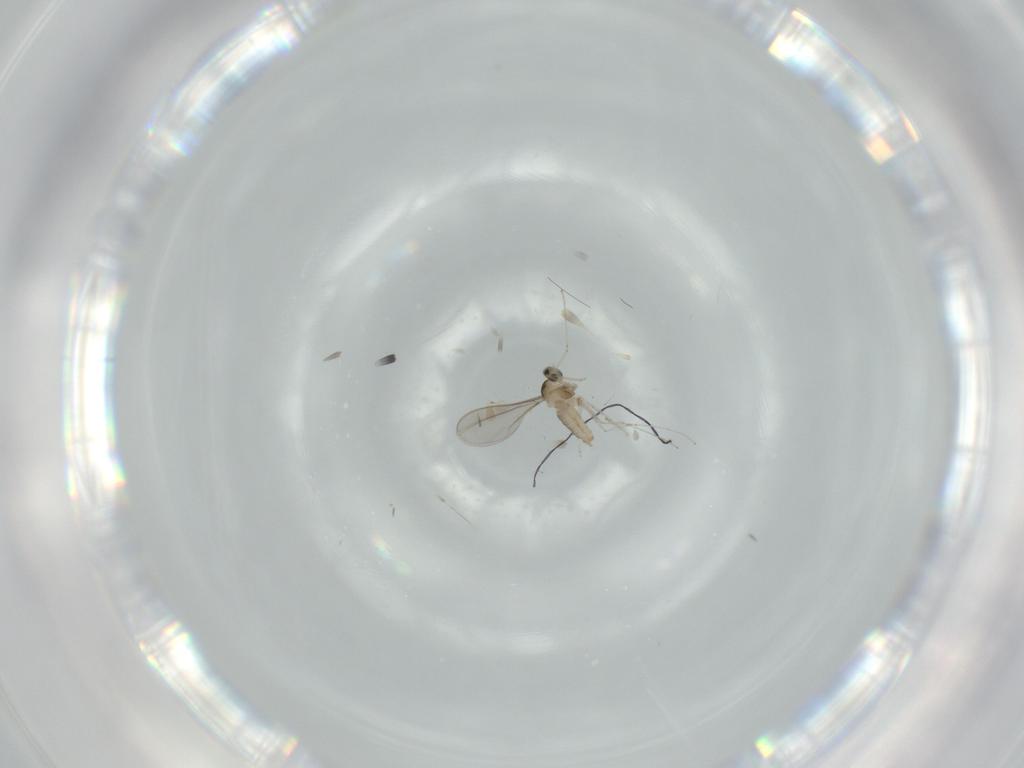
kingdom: Animalia
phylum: Arthropoda
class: Insecta
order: Diptera
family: Cecidomyiidae
